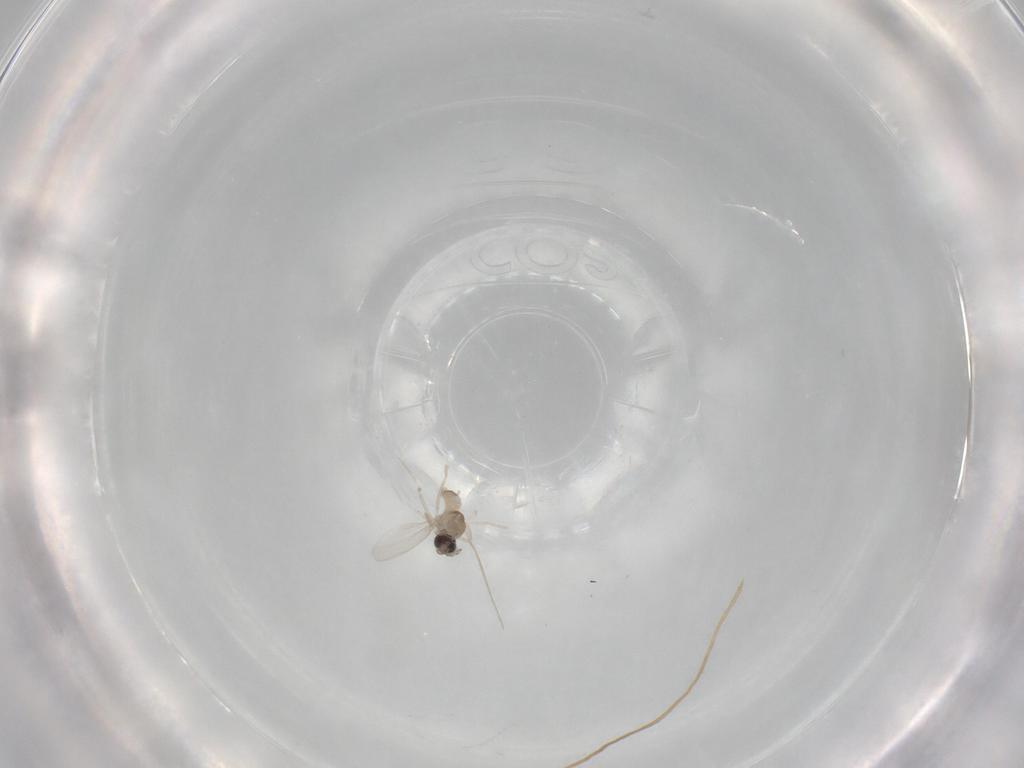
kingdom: Animalia
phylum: Arthropoda
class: Insecta
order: Diptera
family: Cecidomyiidae
